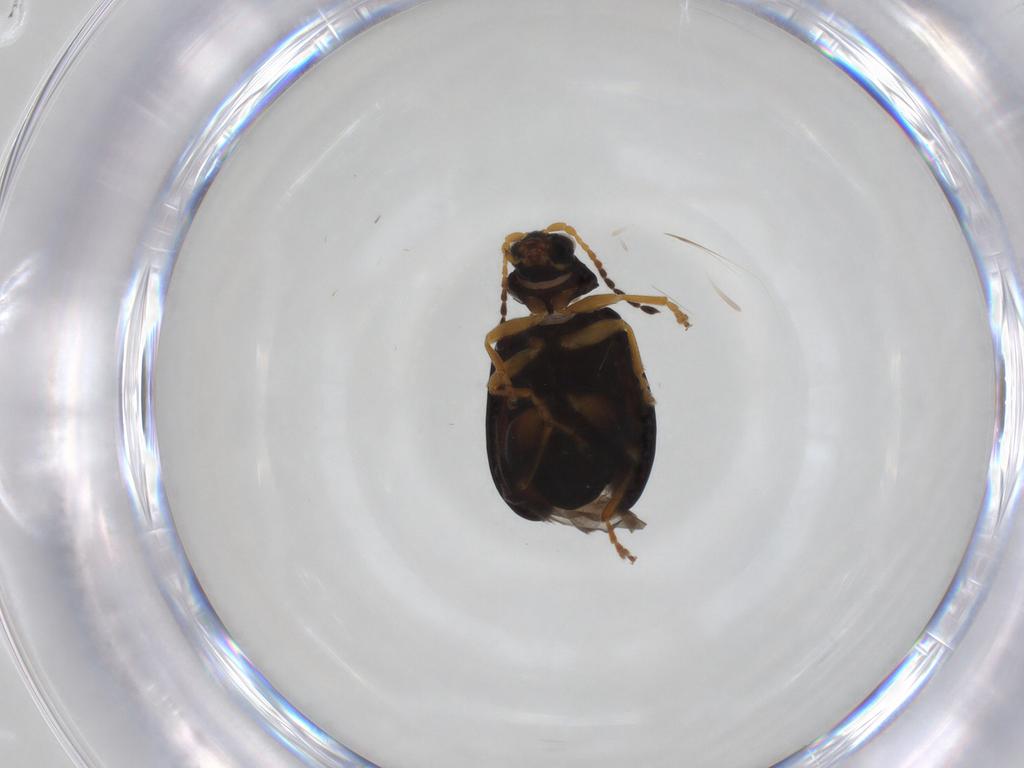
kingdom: Animalia
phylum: Arthropoda
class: Insecta
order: Coleoptera
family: Chrysomelidae
